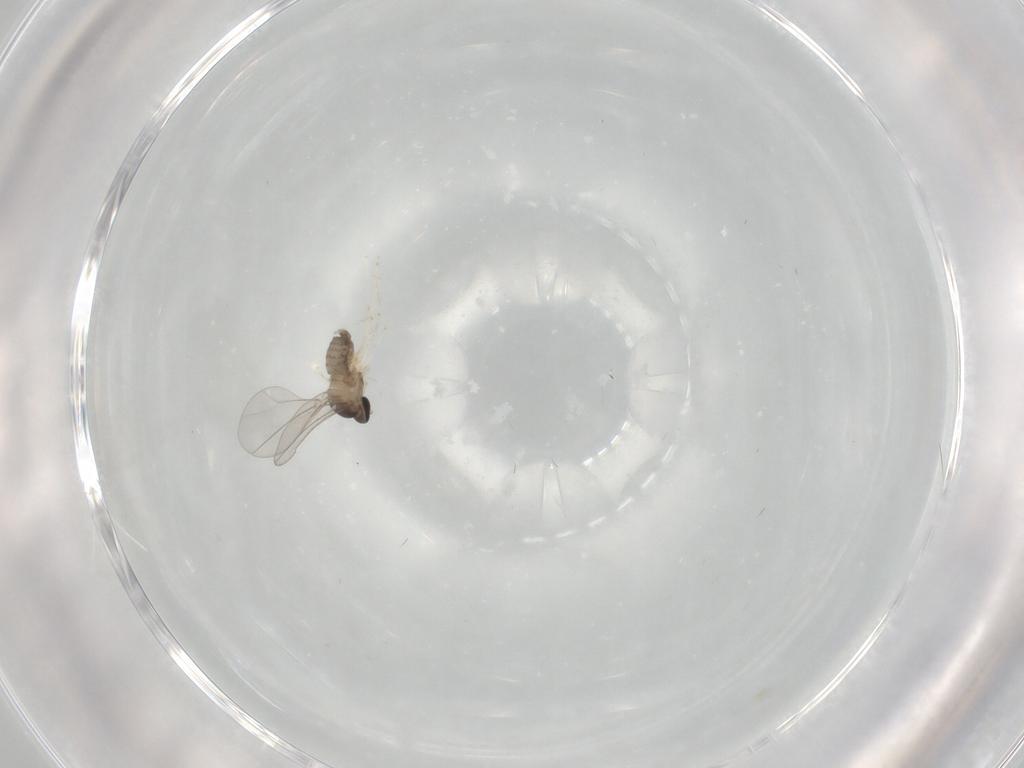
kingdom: Animalia
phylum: Arthropoda
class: Insecta
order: Diptera
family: Cecidomyiidae
